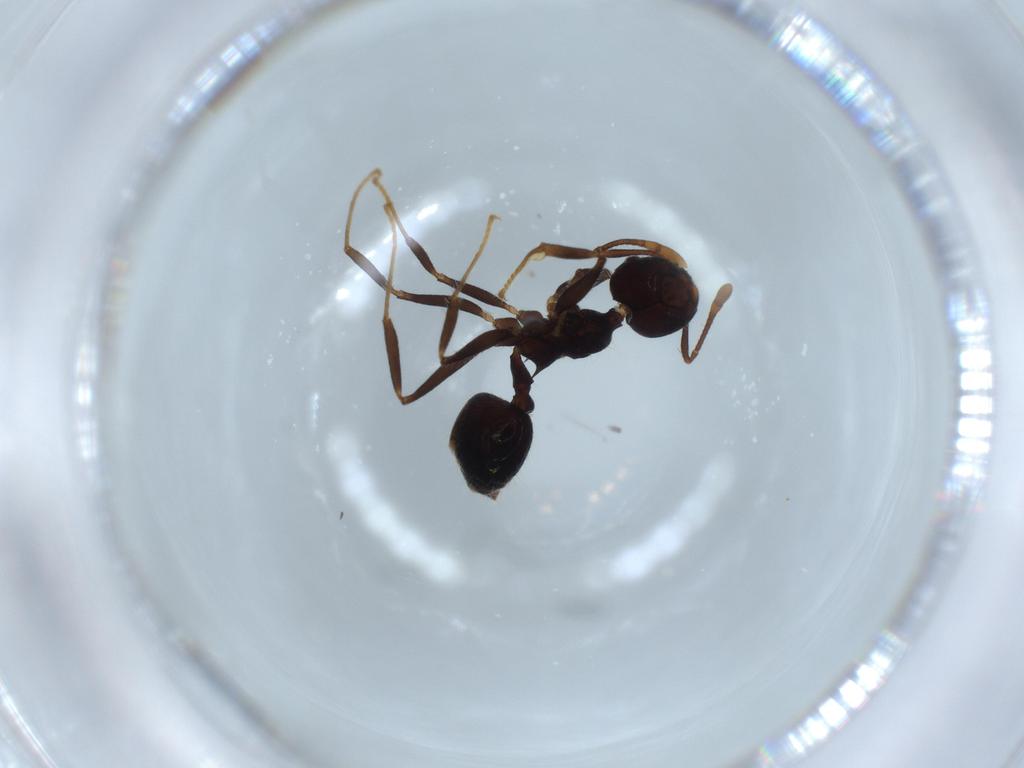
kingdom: Animalia
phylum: Arthropoda
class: Insecta
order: Hymenoptera
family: Formicidae
